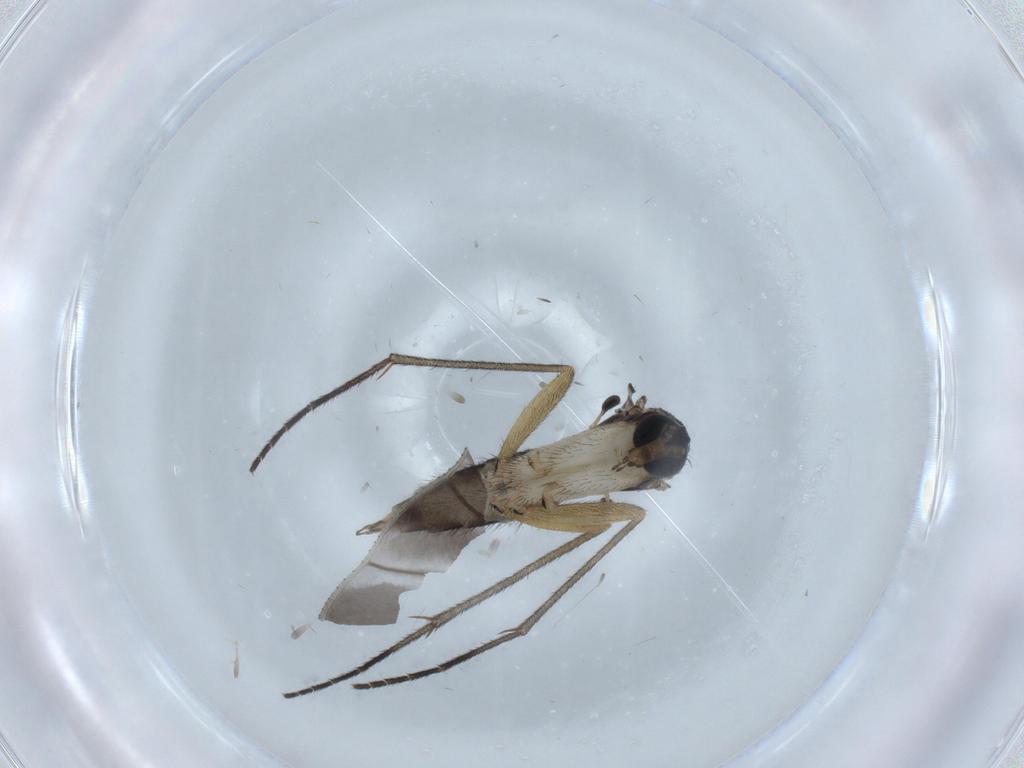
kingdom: Animalia
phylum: Arthropoda
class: Insecta
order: Diptera
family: Sciaridae
